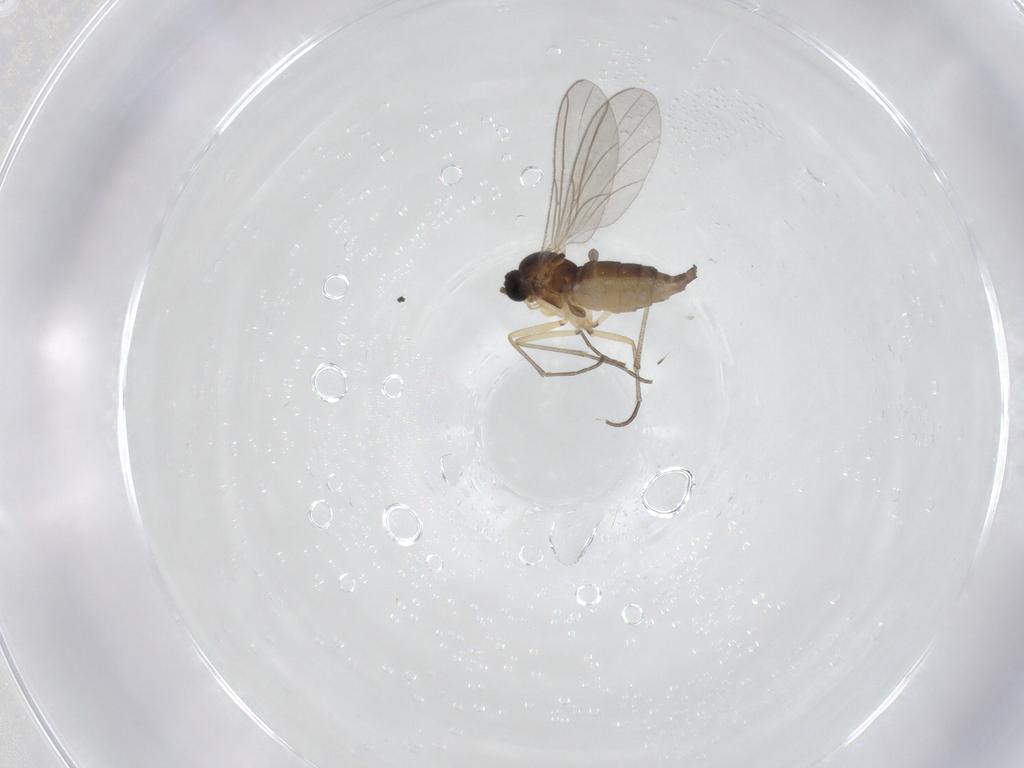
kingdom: Animalia
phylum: Arthropoda
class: Insecta
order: Diptera
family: Sciaridae
